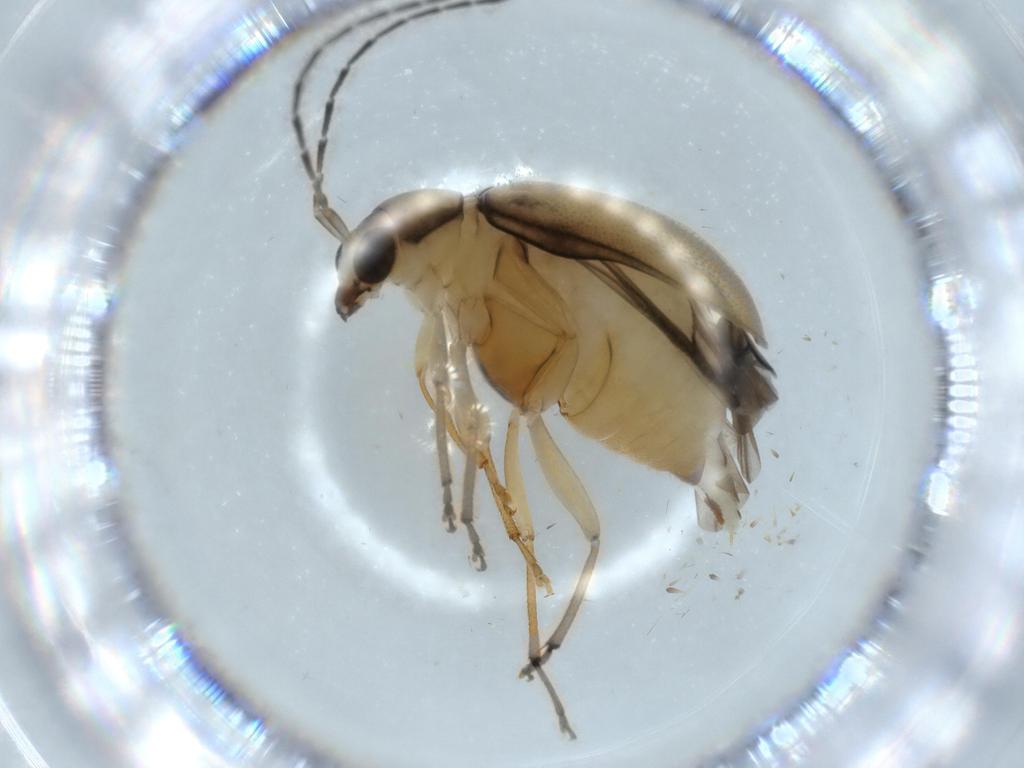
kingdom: Animalia
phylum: Arthropoda
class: Insecta
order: Coleoptera
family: Chrysomelidae
